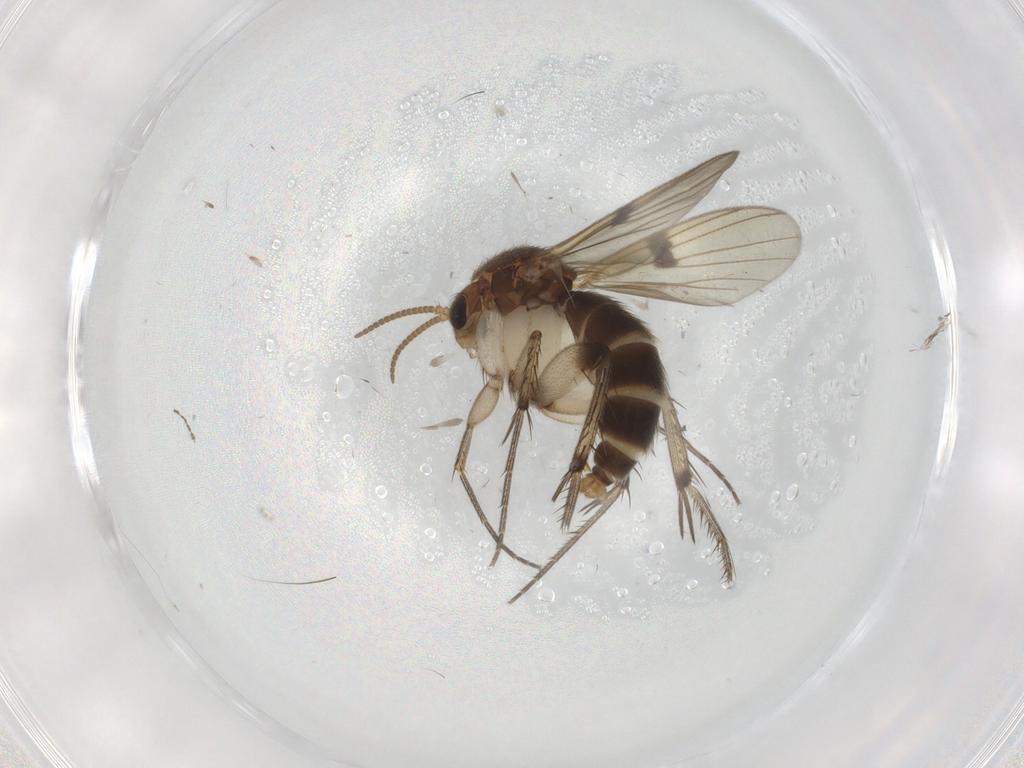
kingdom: Animalia
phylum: Arthropoda
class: Insecta
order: Diptera
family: Mycetophilidae
